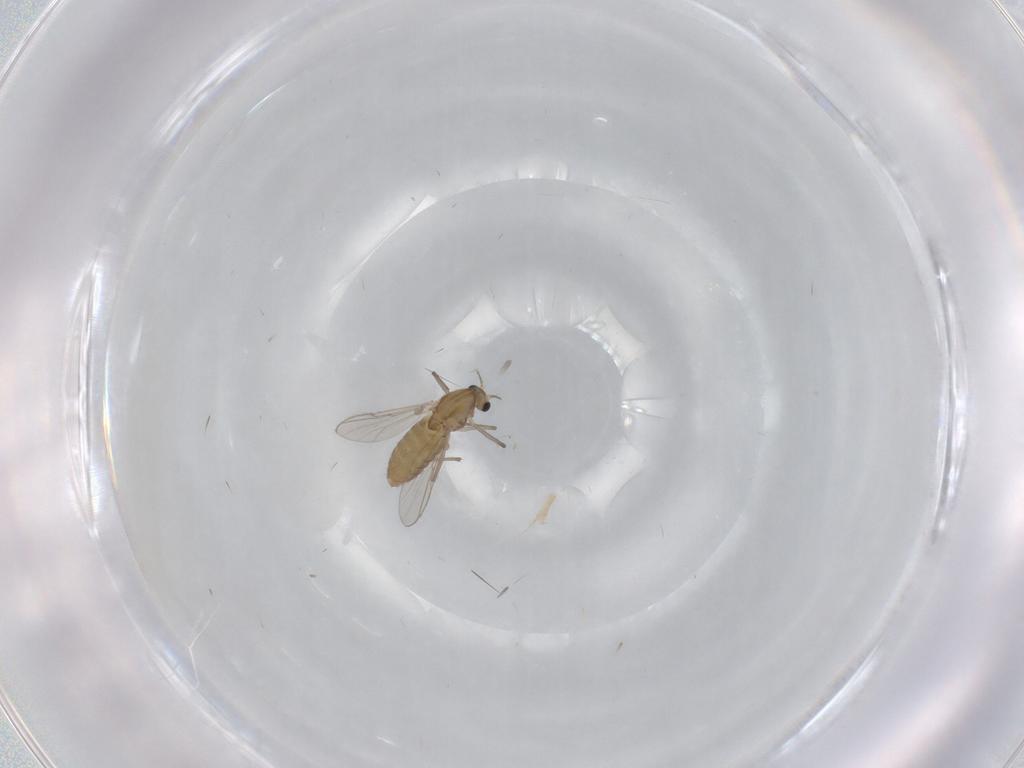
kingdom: Animalia
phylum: Arthropoda
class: Insecta
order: Diptera
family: Chironomidae
